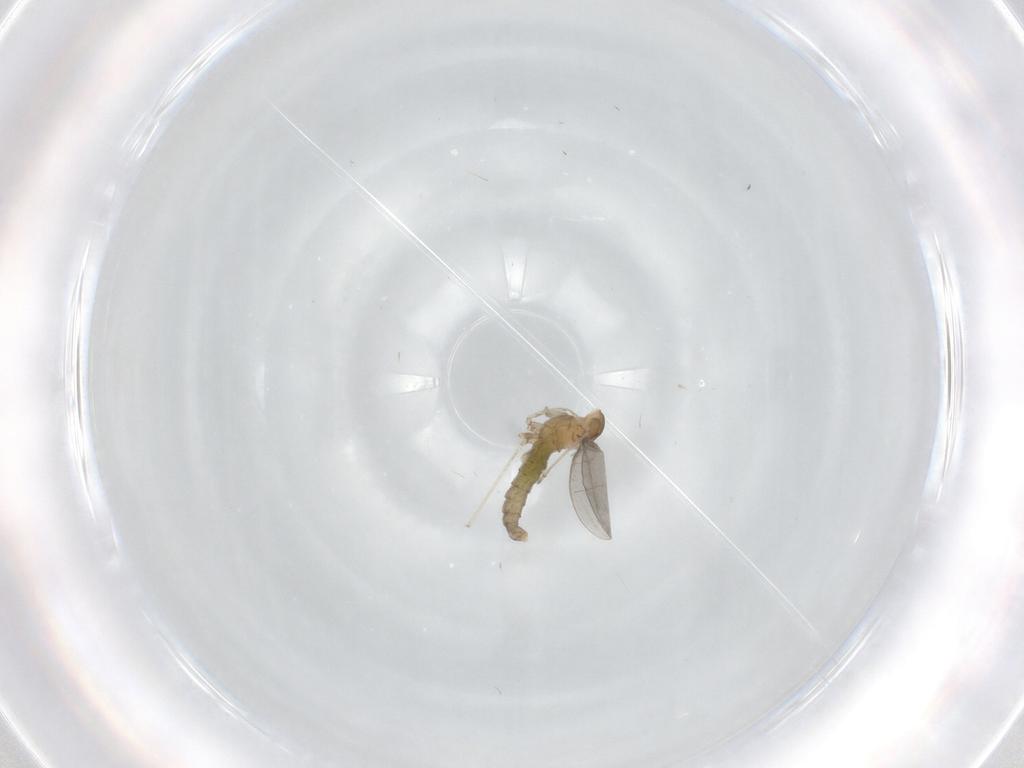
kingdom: Animalia
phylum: Arthropoda
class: Insecta
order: Diptera
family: Cecidomyiidae
